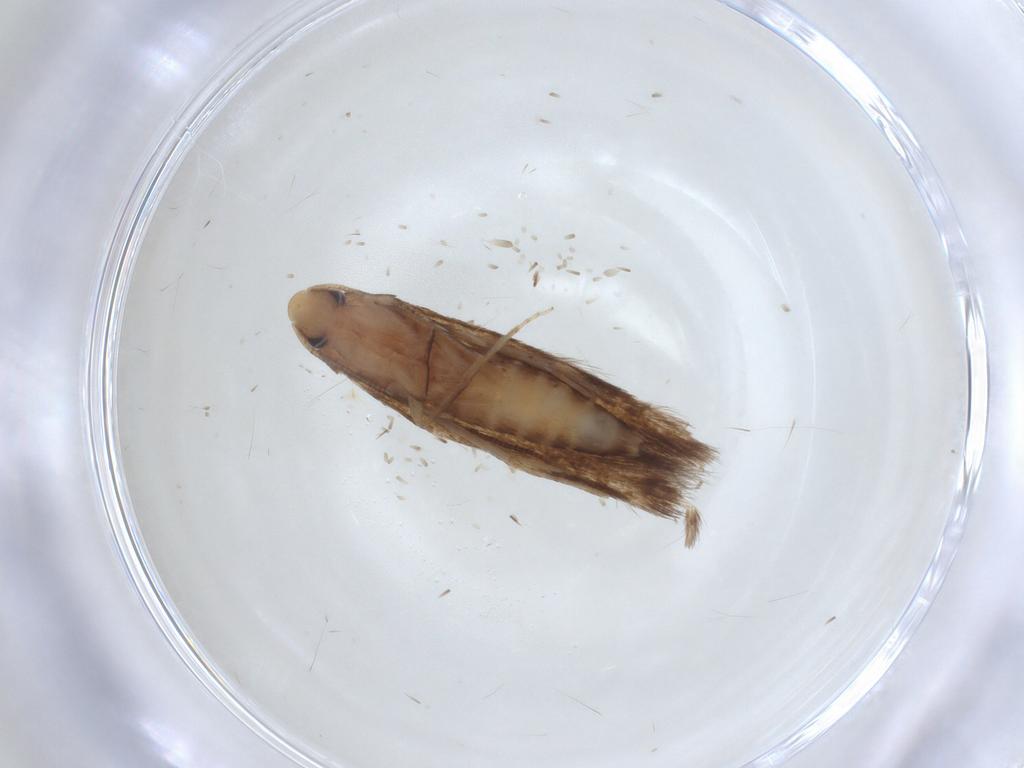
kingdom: Animalia
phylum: Arthropoda
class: Insecta
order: Lepidoptera
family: Tineidae
